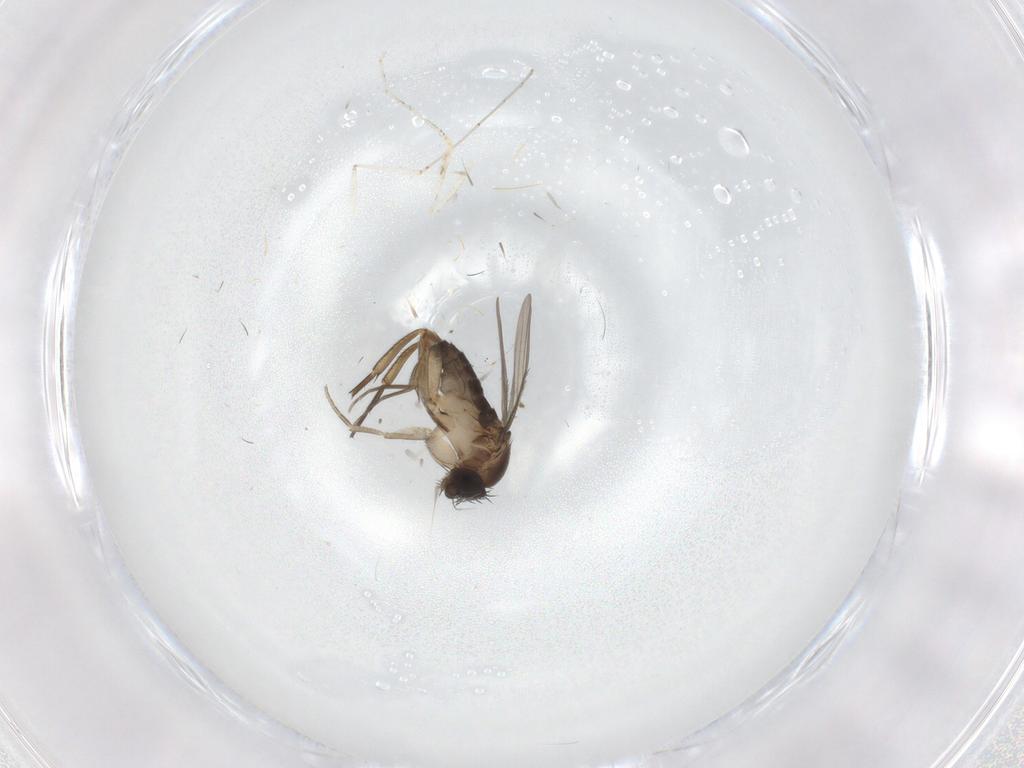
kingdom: Animalia
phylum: Arthropoda
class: Insecta
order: Diptera
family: Phoridae
